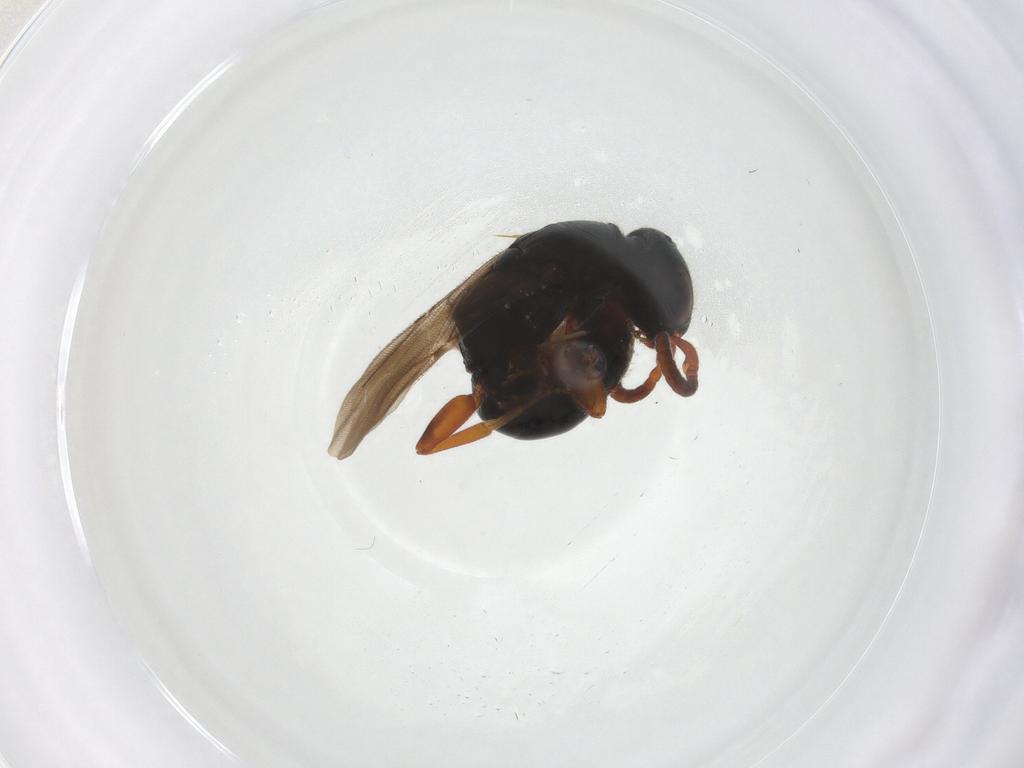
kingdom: Animalia
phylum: Arthropoda
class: Insecta
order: Hymenoptera
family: Bethylidae
